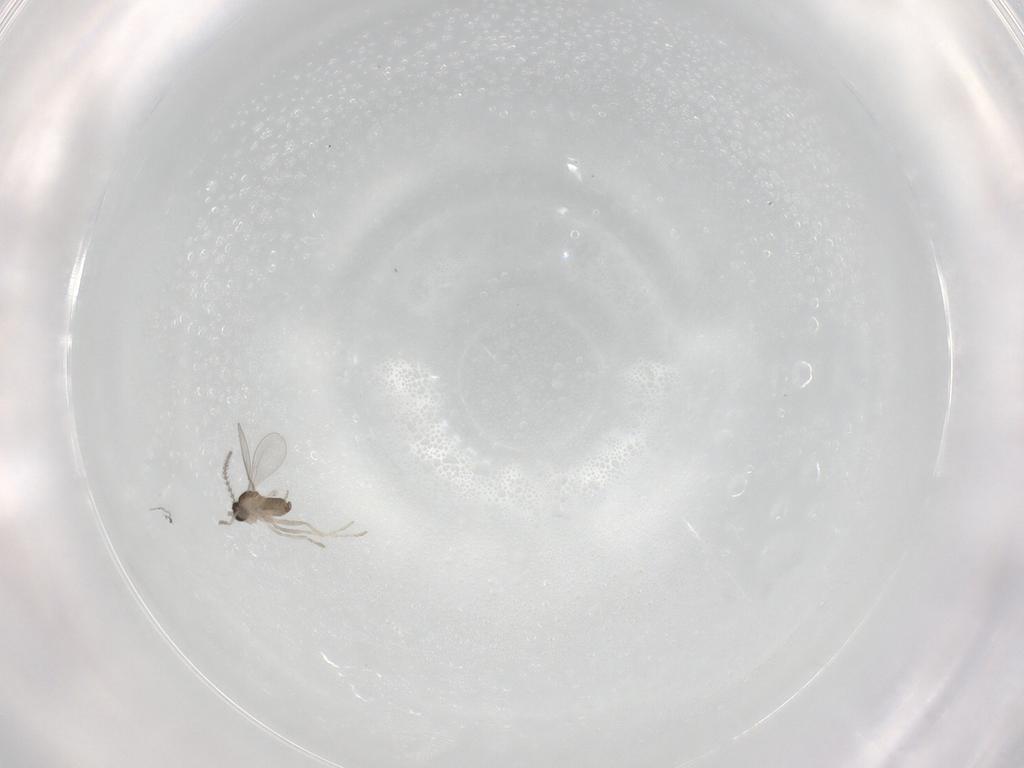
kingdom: Animalia
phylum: Arthropoda
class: Insecta
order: Diptera
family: Cecidomyiidae
